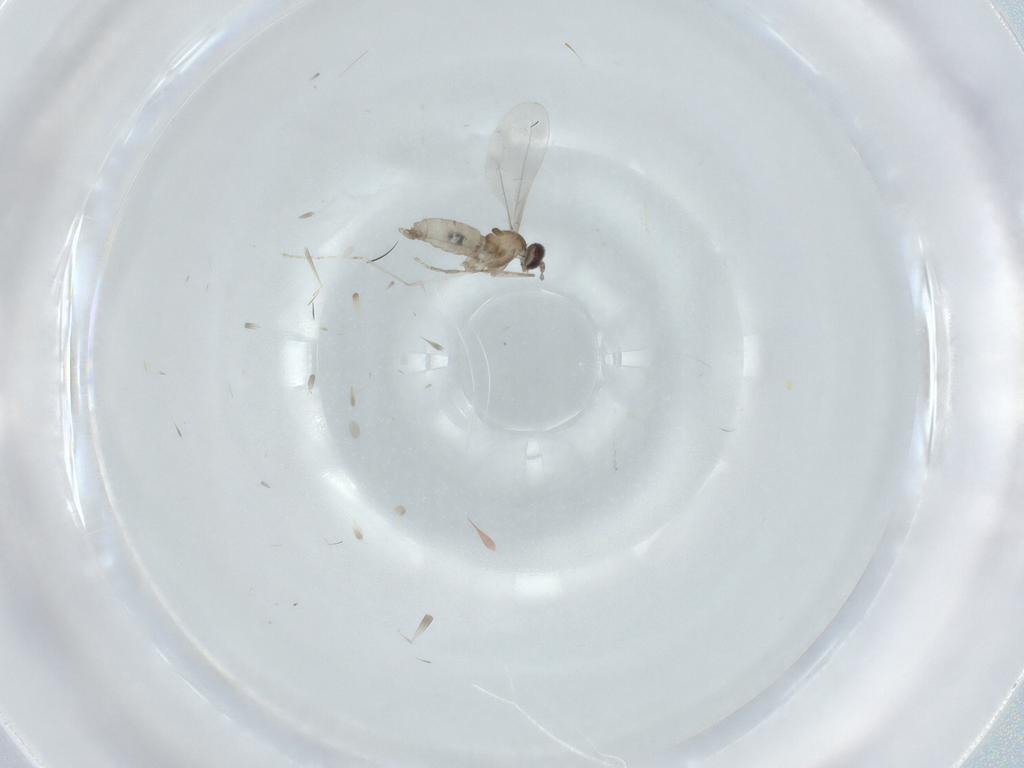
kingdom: Animalia
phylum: Arthropoda
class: Insecta
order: Diptera
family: Cecidomyiidae
